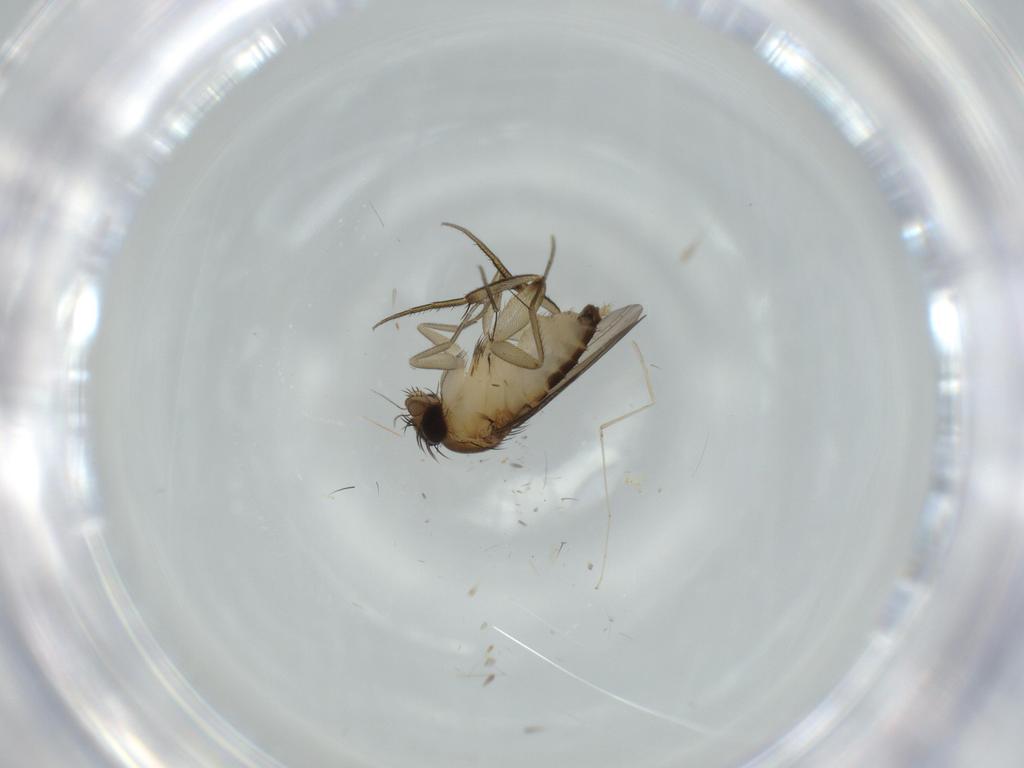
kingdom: Animalia
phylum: Arthropoda
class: Insecta
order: Diptera
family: Phoridae
